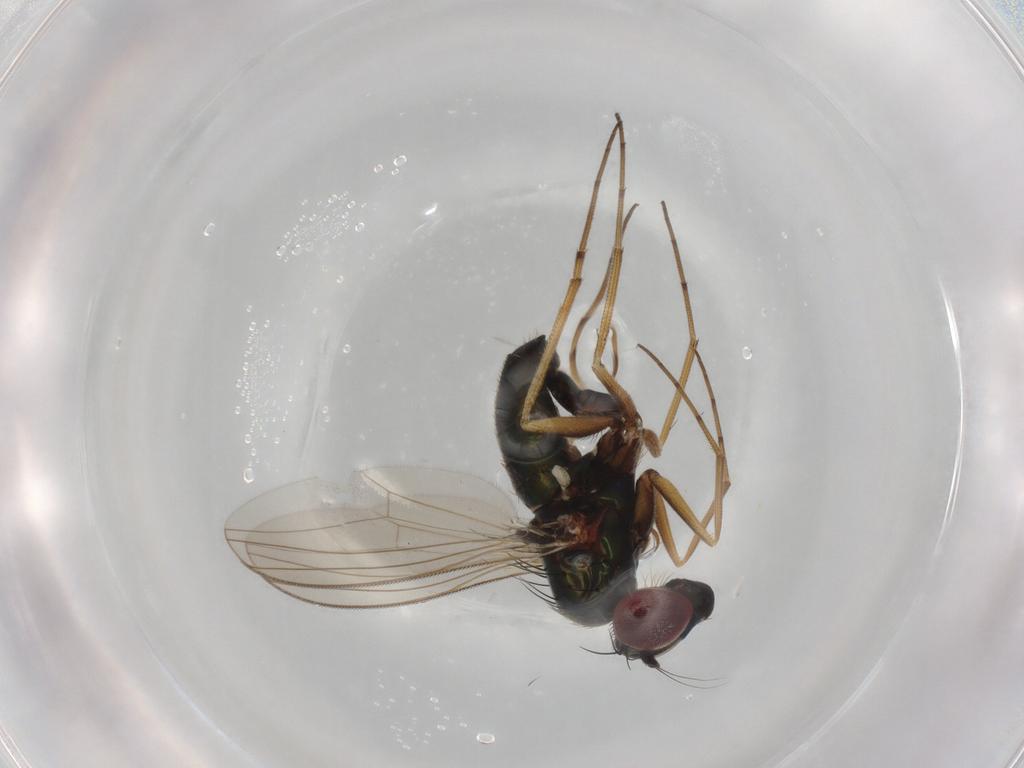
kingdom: Animalia
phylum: Arthropoda
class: Insecta
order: Diptera
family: Dolichopodidae
